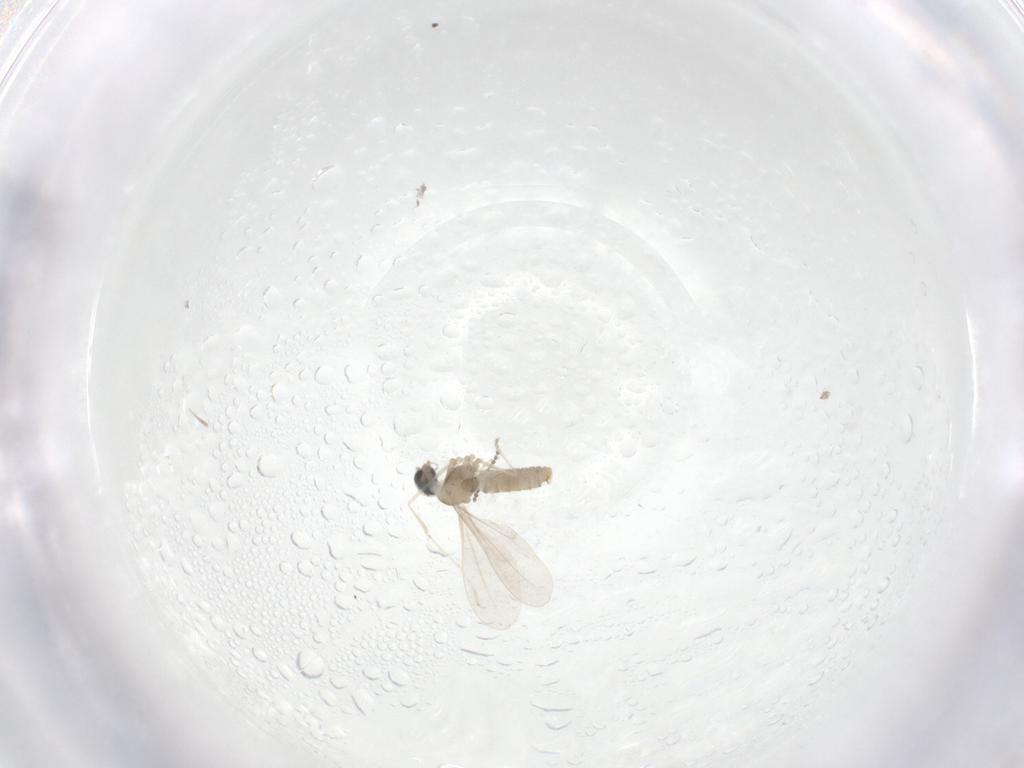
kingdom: Animalia
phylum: Arthropoda
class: Insecta
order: Diptera
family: Cecidomyiidae
